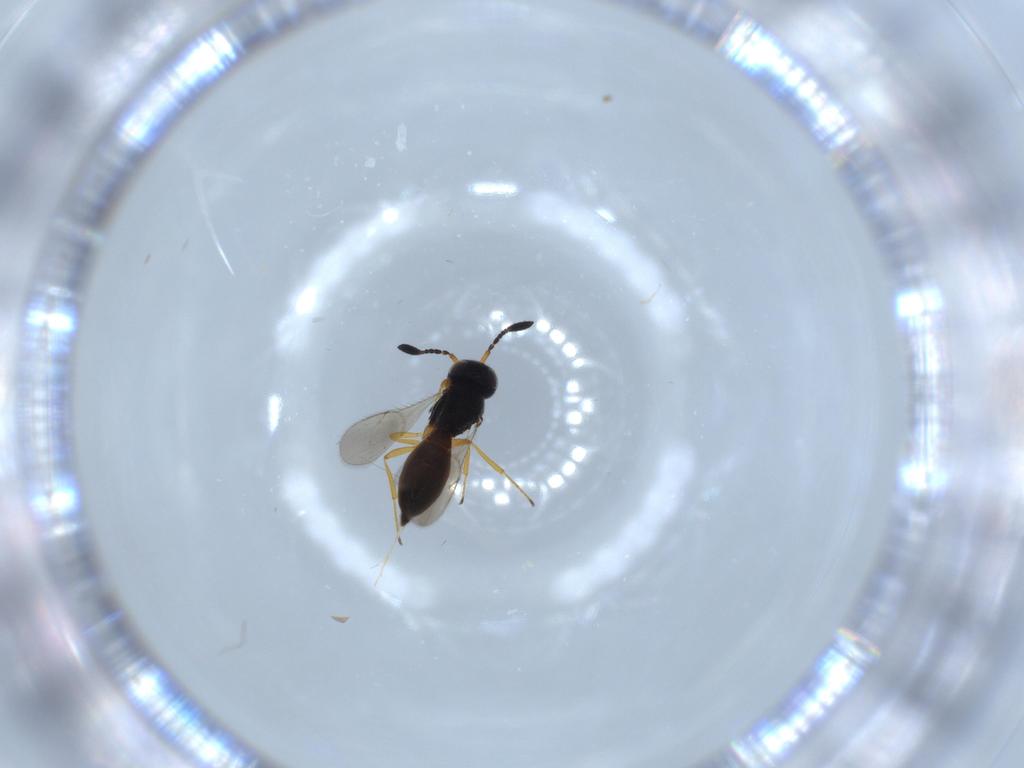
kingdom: Animalia
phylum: Arthropoda
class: Insecta
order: Hymenoptera
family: Scelionidae
